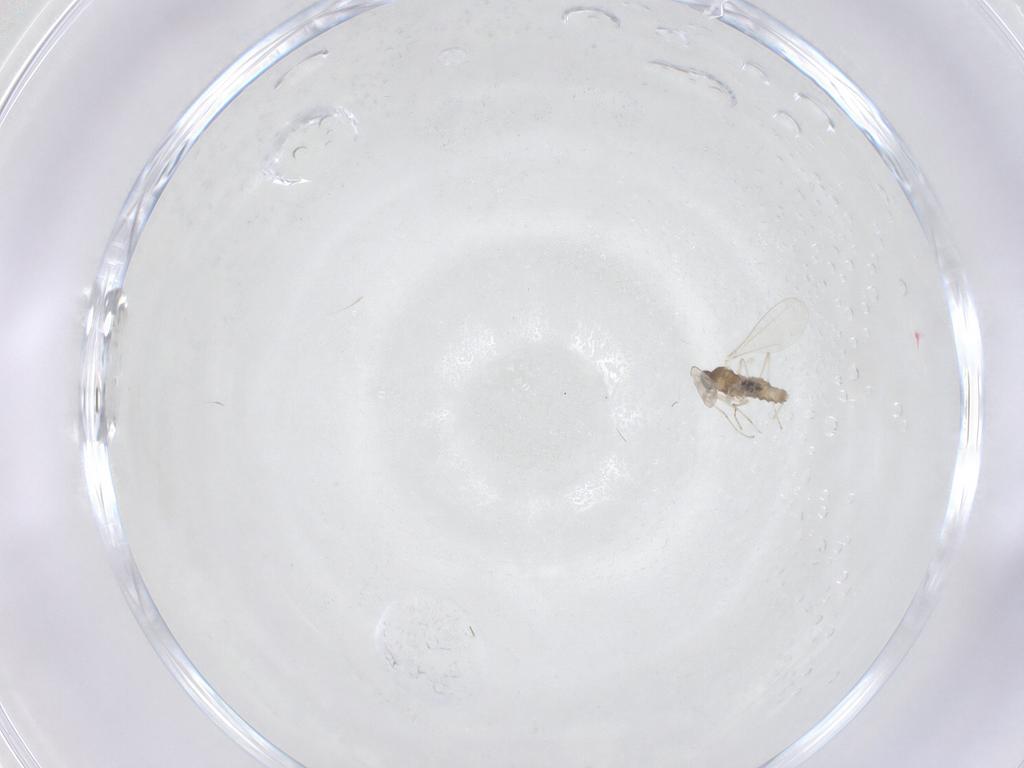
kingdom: Animalia
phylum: Arthropoda
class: Insecta
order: Diptera
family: Cecidomyiidae
